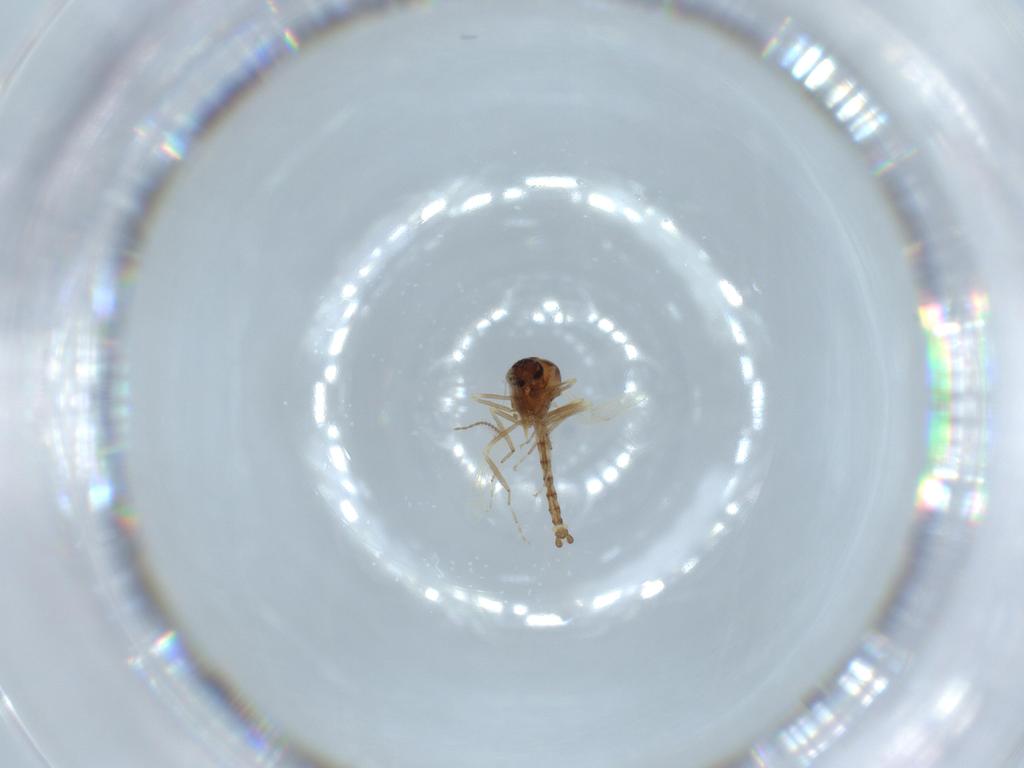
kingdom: Animalia
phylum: Arthropoda
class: Insecta
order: Diptera
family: Ceratopogonidae
